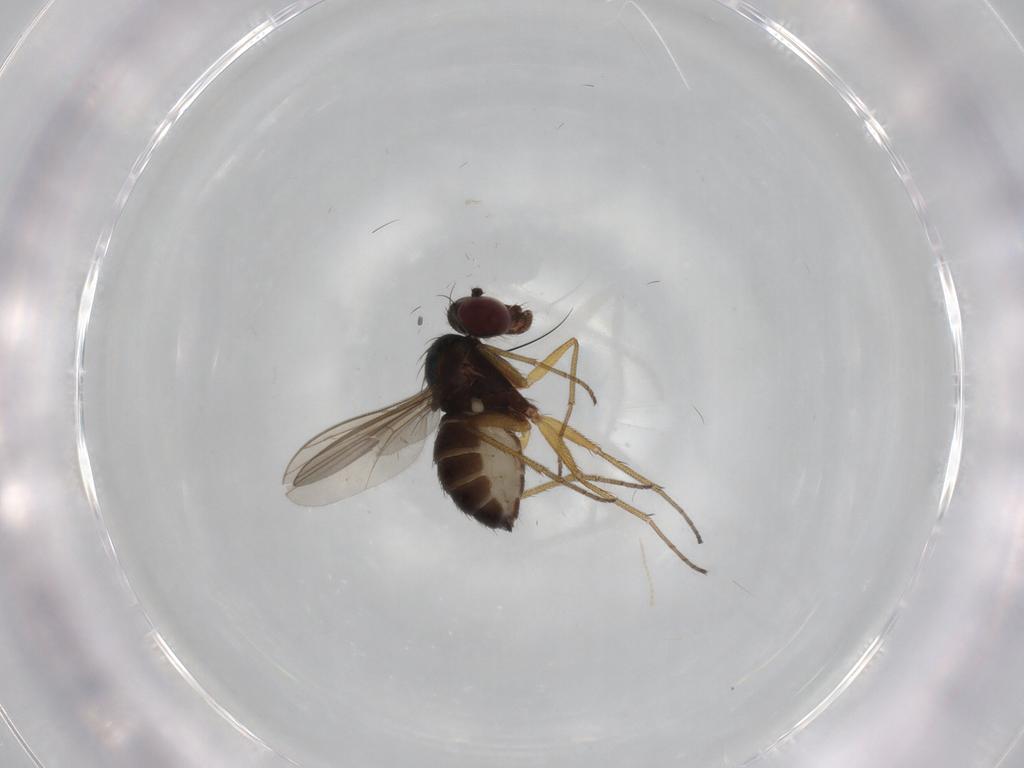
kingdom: Animalia
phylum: Arthropoda
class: Insecta
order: Diptera
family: Dolichopodidae
